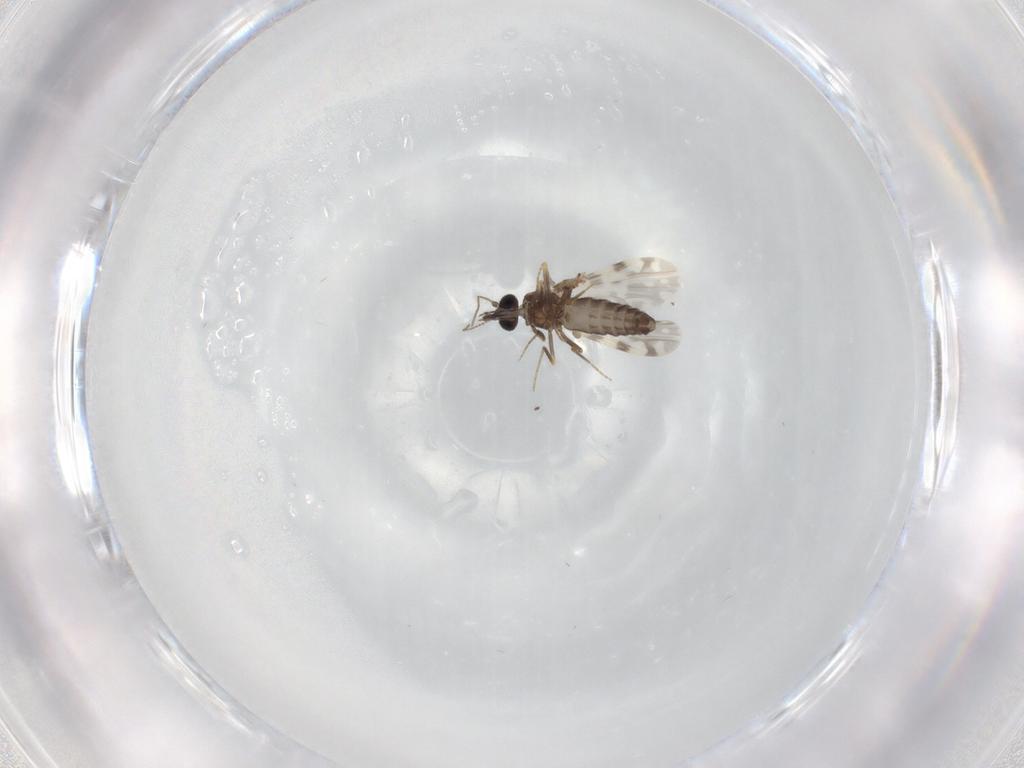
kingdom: Animalia
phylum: Arthropoda
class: Insecta
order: Diptera
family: Ceratopogonidae
